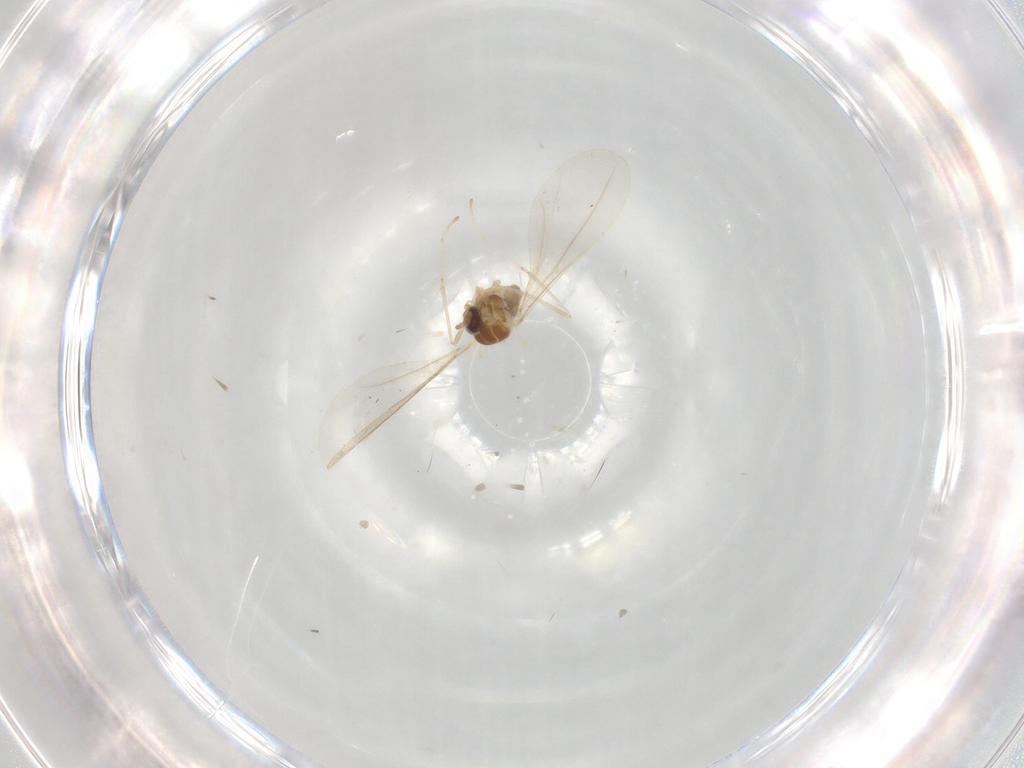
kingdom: Animalia
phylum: Arthropoda
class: Insecta
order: Diptera
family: Cecidomyiidae
